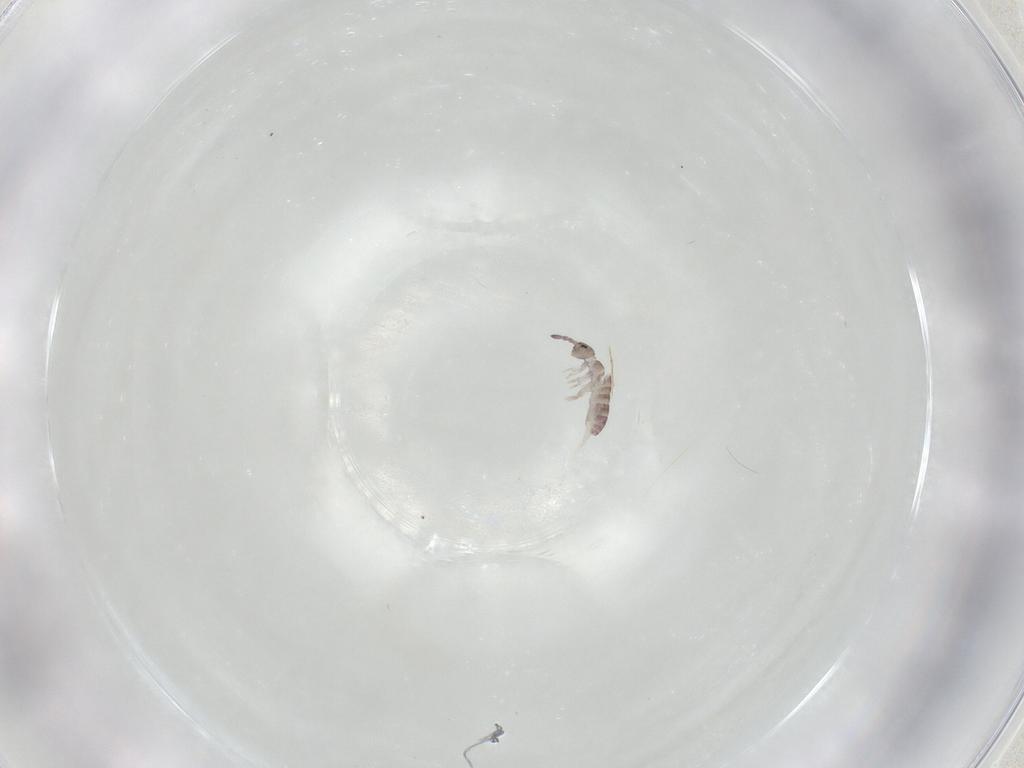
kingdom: Animalia
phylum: Arthropoda
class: Collembola
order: Entomobryomorpha
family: Isotomidae
